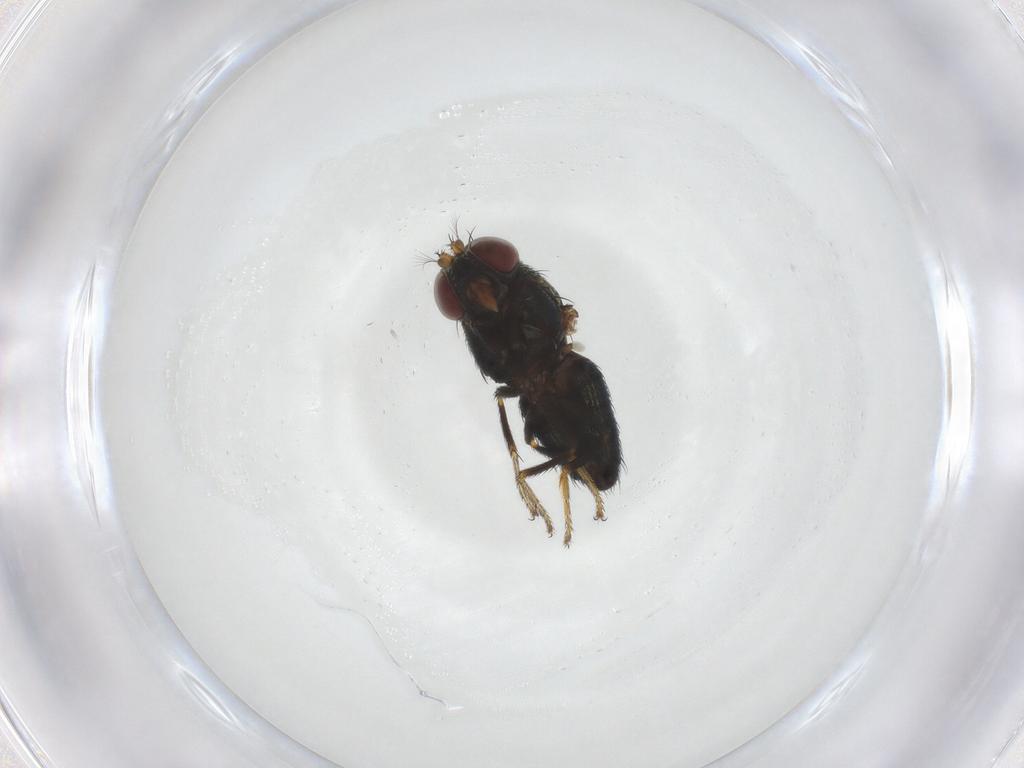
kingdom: Animalia
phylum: Arthropoda
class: Insecta
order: Diptera
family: Ephydridae
